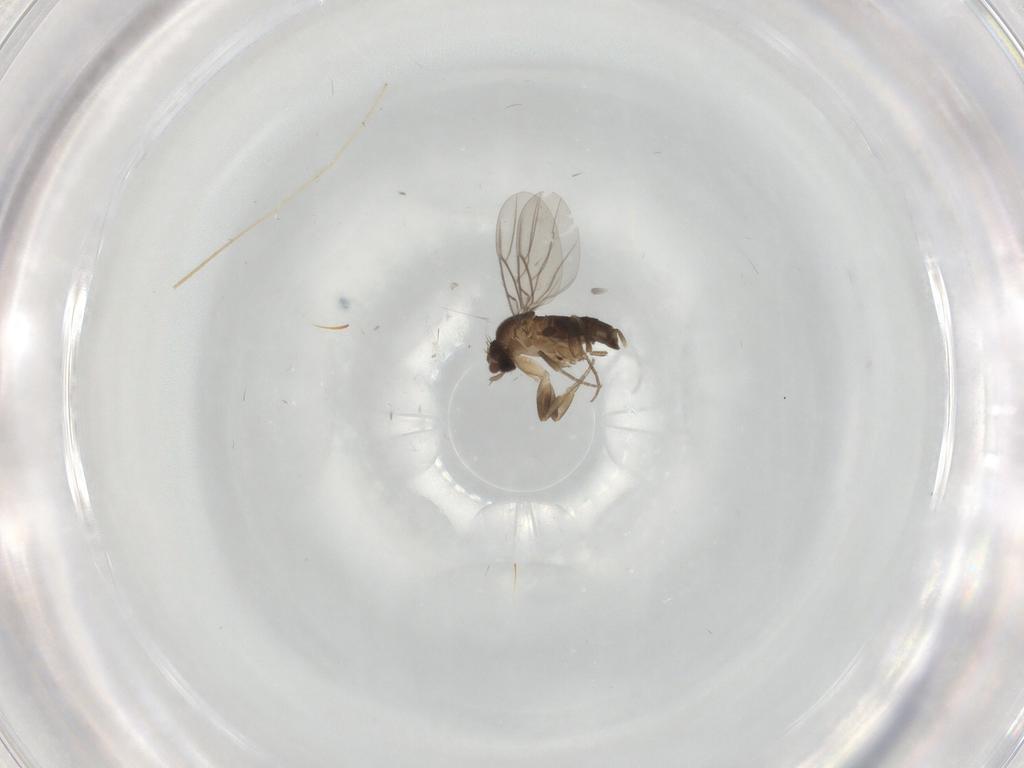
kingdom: Animalia
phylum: Arthropoda
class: Insecta
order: Diptera
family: Phoridae
